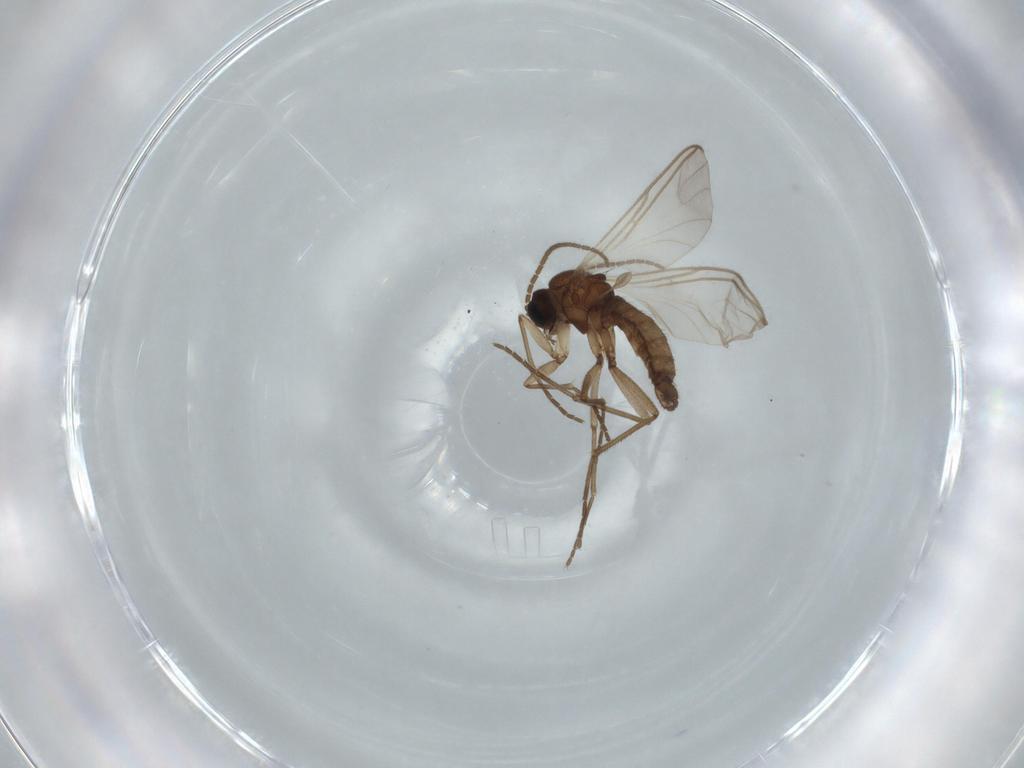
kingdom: Animalia
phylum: Arthropoda
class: Insecta
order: Diptera
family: Sciaridae
